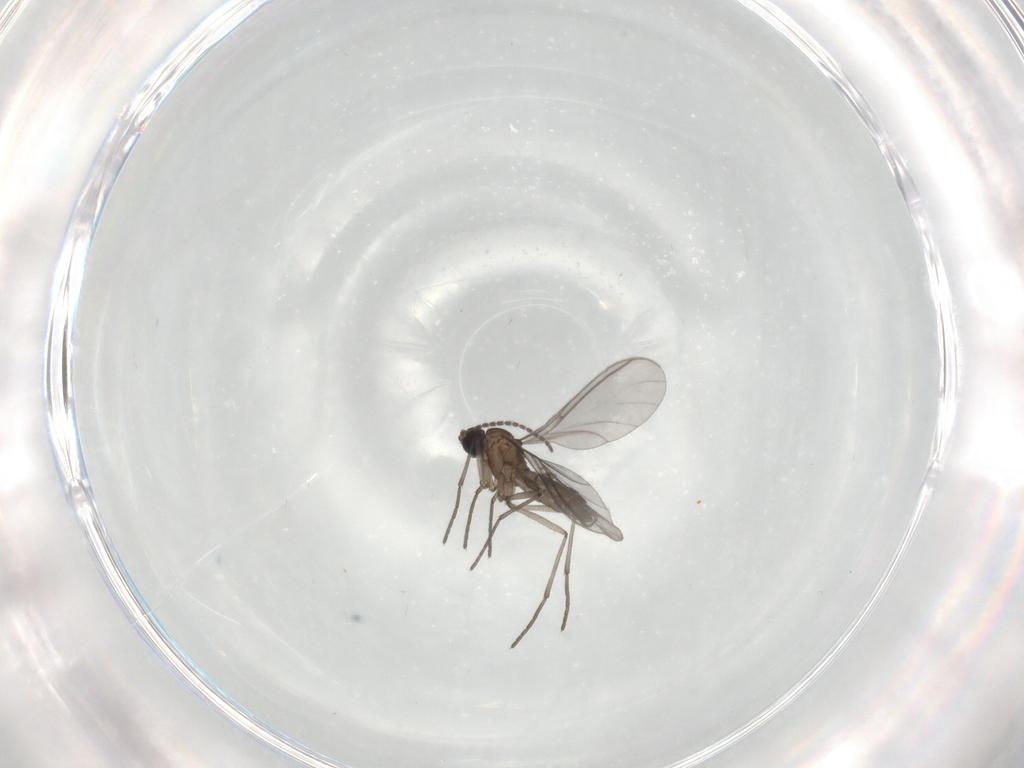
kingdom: Animalia
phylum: Arthropoda
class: Insecta
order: Diptera
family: Sciaridae
